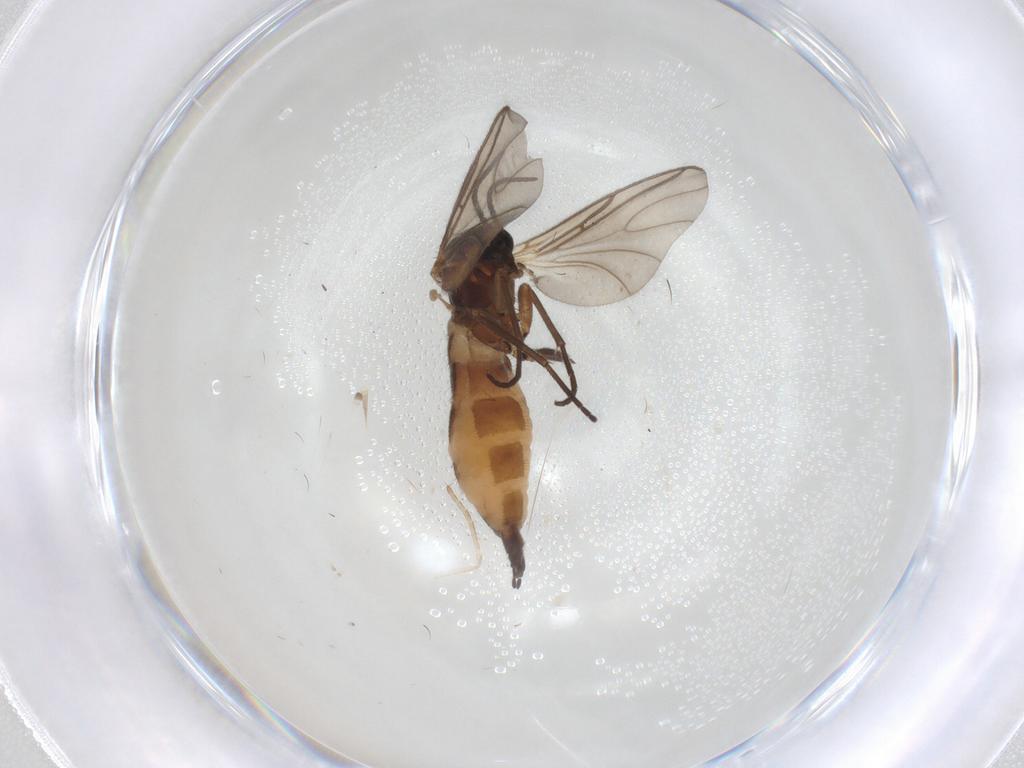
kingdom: Animalia
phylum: Arthropoda
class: Insecta
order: Diptera
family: Sciaridae
